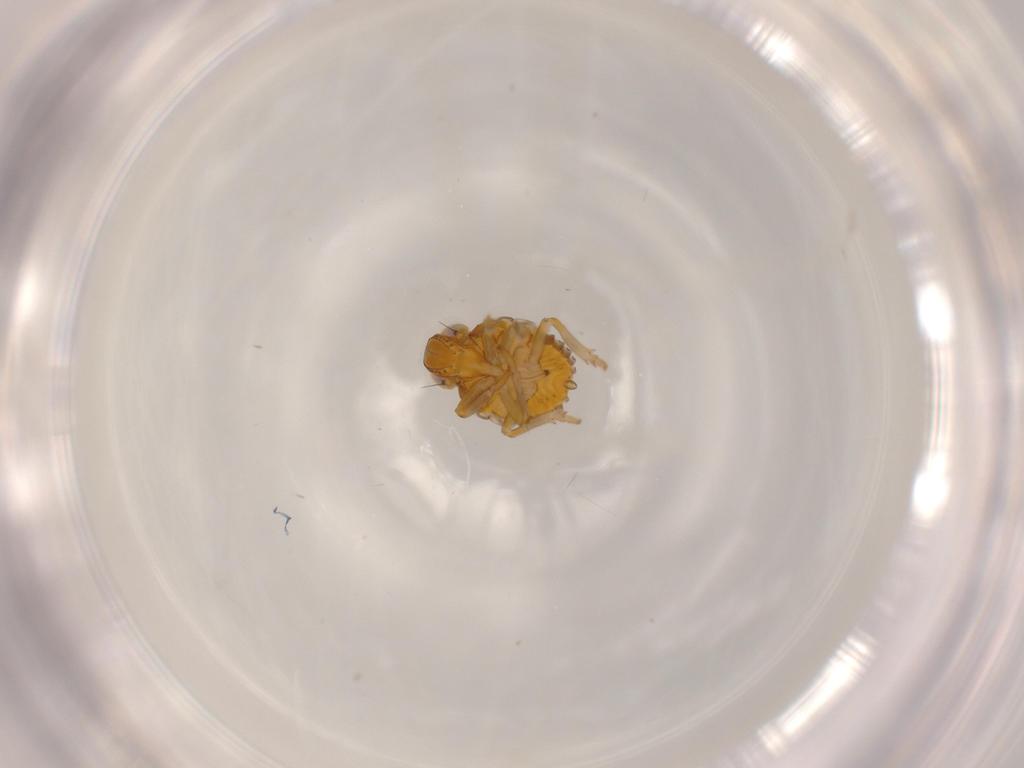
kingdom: Animalia
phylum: Arthropoda
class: Insecta
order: Hemiptera
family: Issidae
